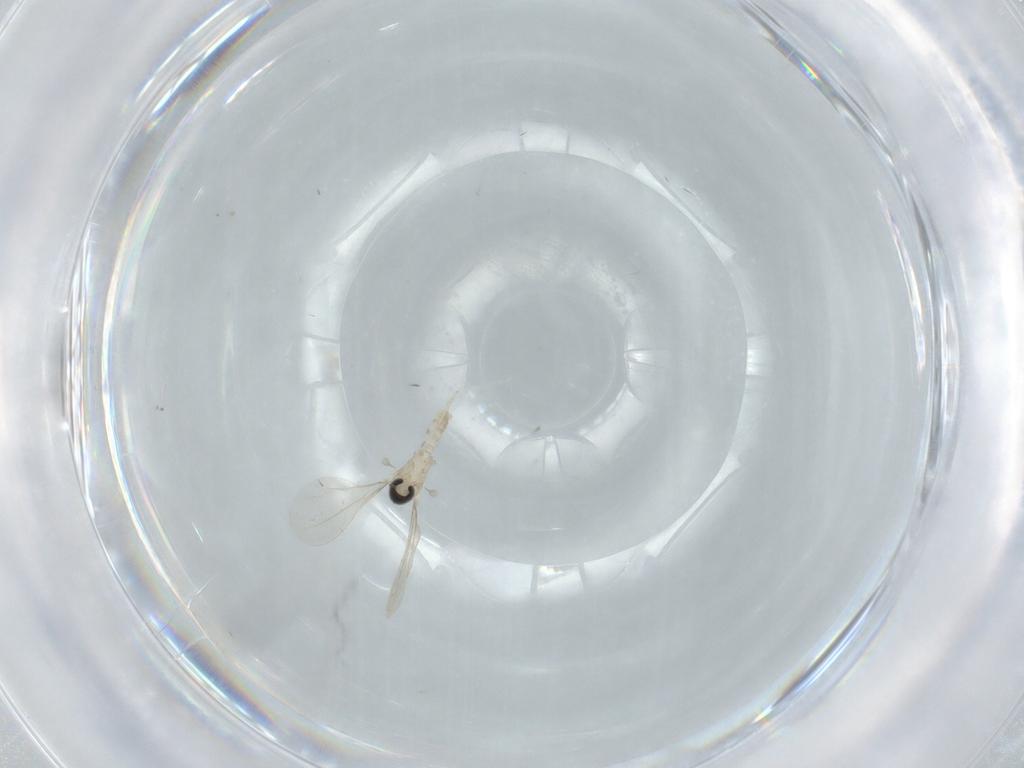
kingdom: Animalia
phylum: Arthropoda
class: Insecta
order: Diptera
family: Cecidomyiidae
